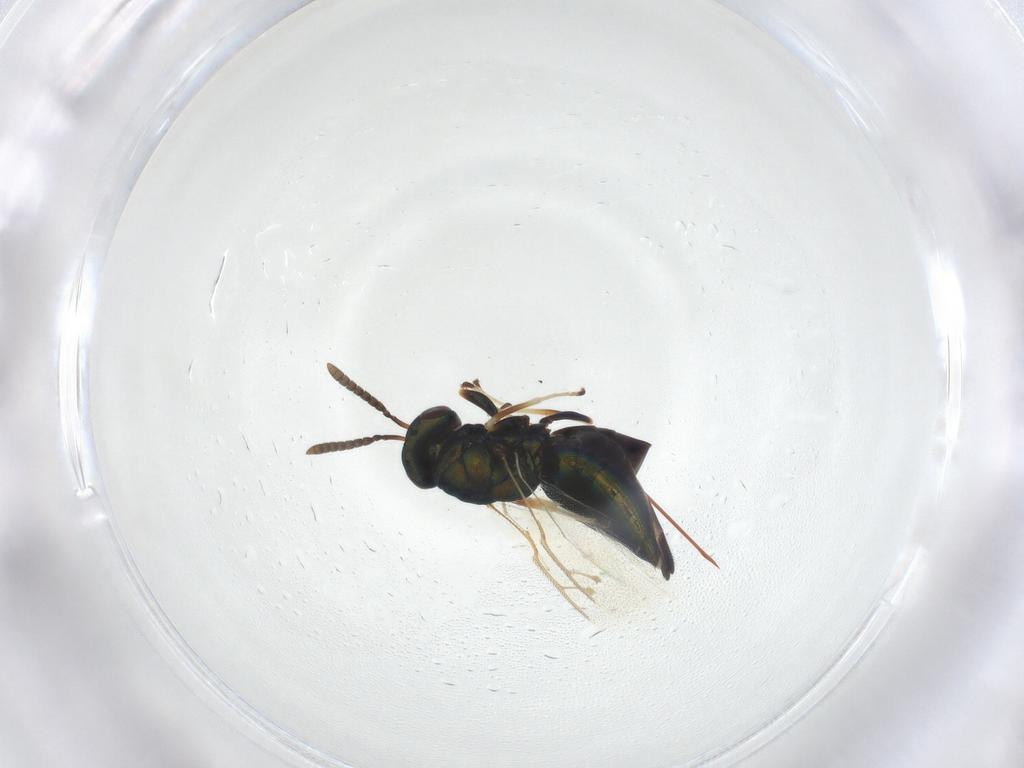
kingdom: Animalia
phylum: Arthropoda
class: Insecta
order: Hymenoptera
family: Pteromalidae
